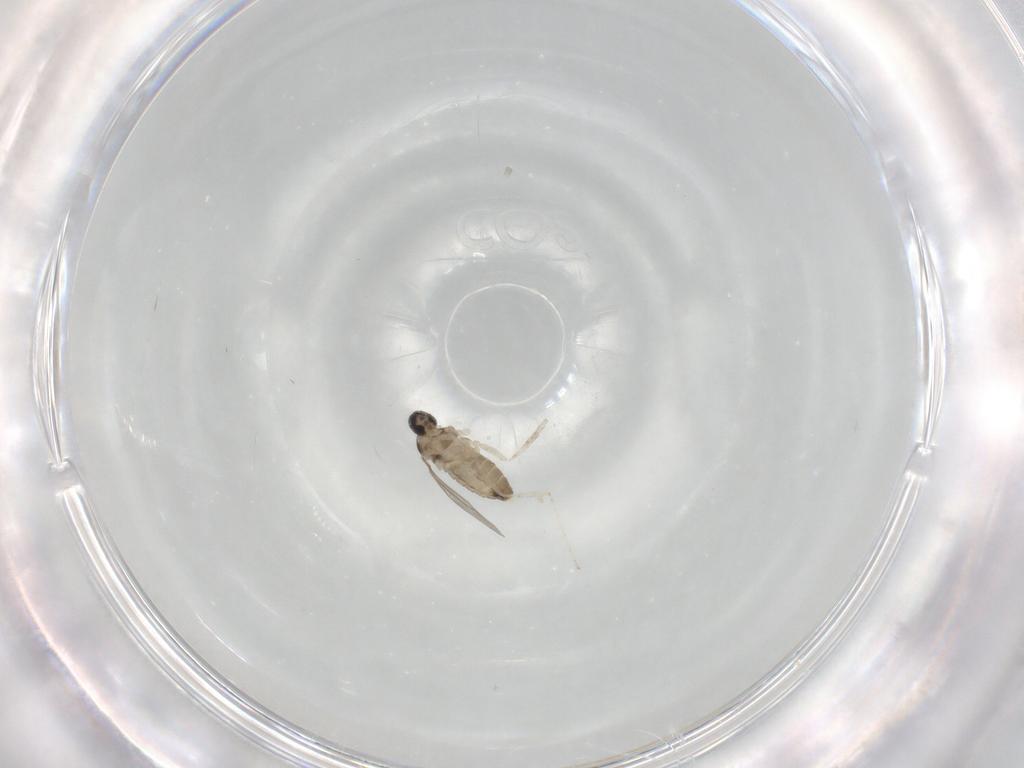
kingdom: Animalia
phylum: Arthropoda
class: Insecta
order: Diptera
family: Cecidomyiidae
